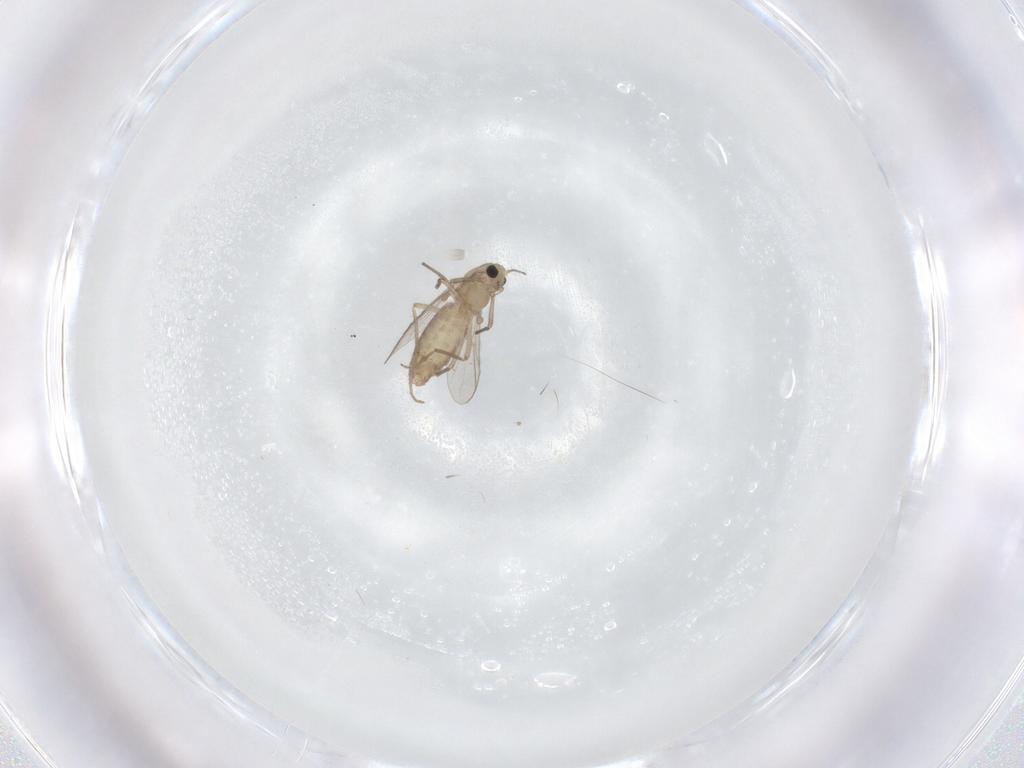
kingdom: Animalia
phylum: Arthropoda
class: Insecta
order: Diptera
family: Chironomidae
